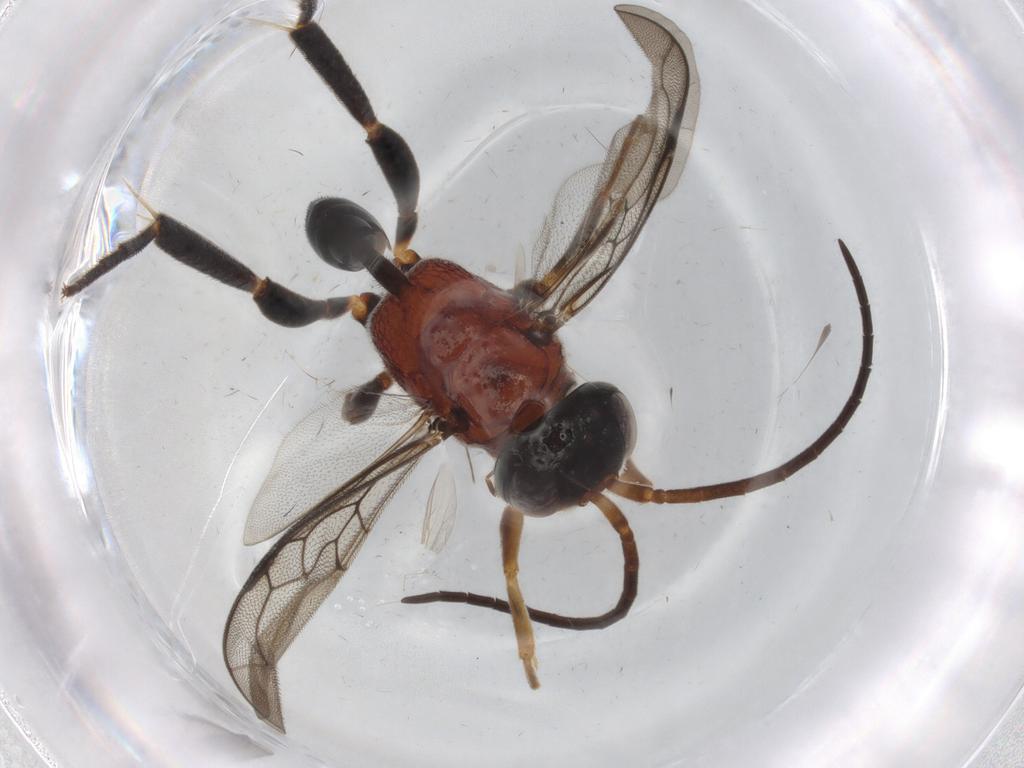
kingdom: Animalia
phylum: Arthropoda
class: Insecta
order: Hymenoptera
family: Evaniidae
